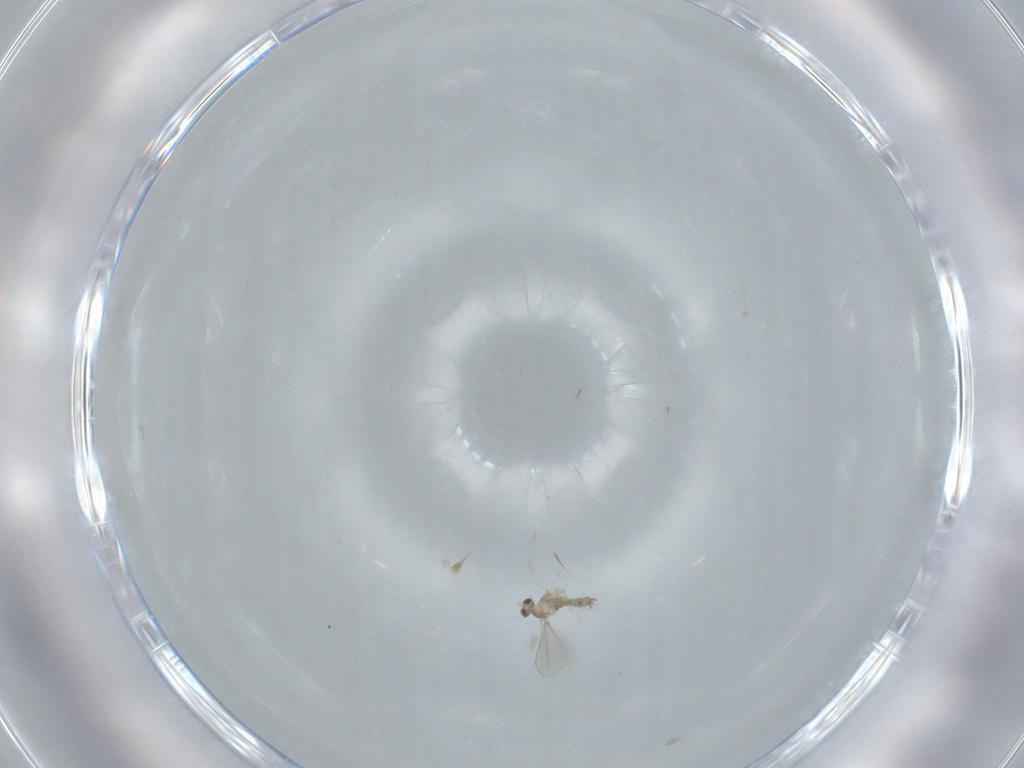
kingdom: Animalia
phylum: Arthropoda
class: Insecta
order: Diptera
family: Cecidomyiidae
